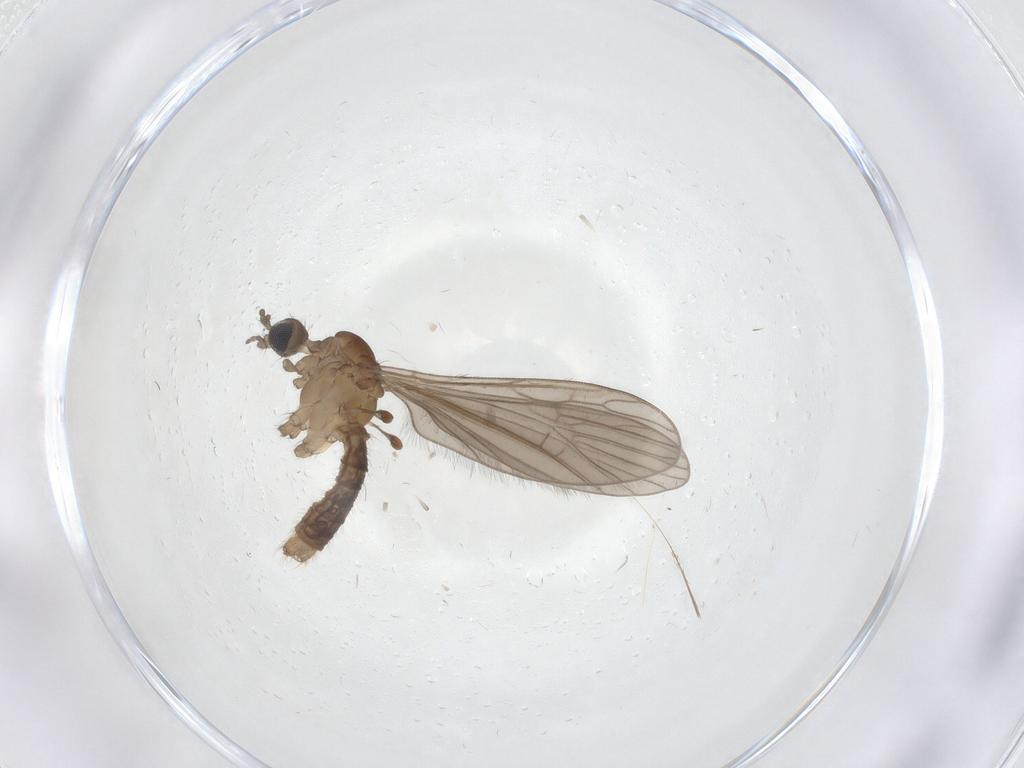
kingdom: Animalia
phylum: Arthropoda
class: Insecta
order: Diptera
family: Limoniidae
